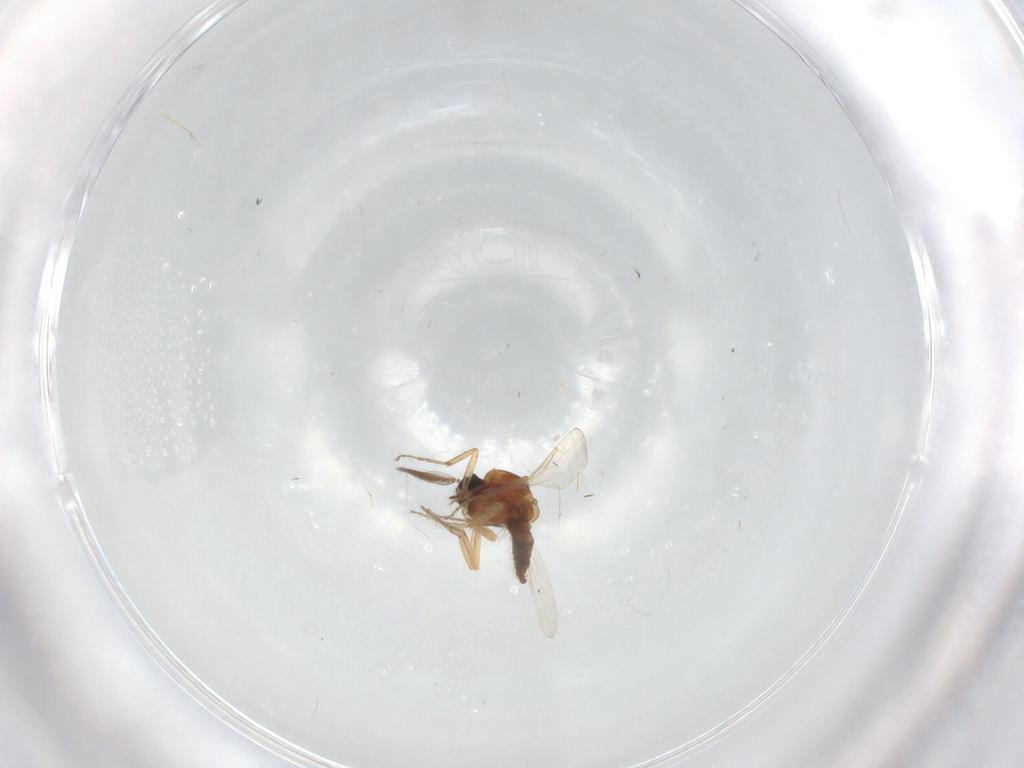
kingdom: Animalia
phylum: Arthropoda
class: Insecta
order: Diptera
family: Ceratopogonidae
